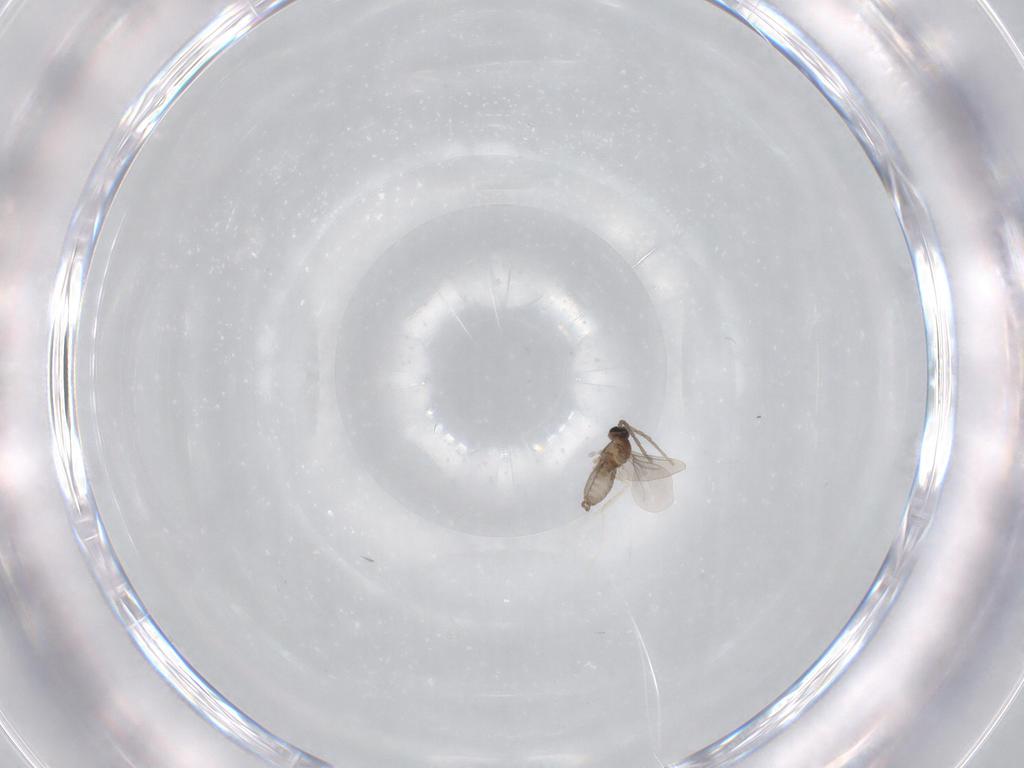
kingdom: Animalia
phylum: Arthropoda
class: Insecta
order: Diptera
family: Cecidomyiidae
